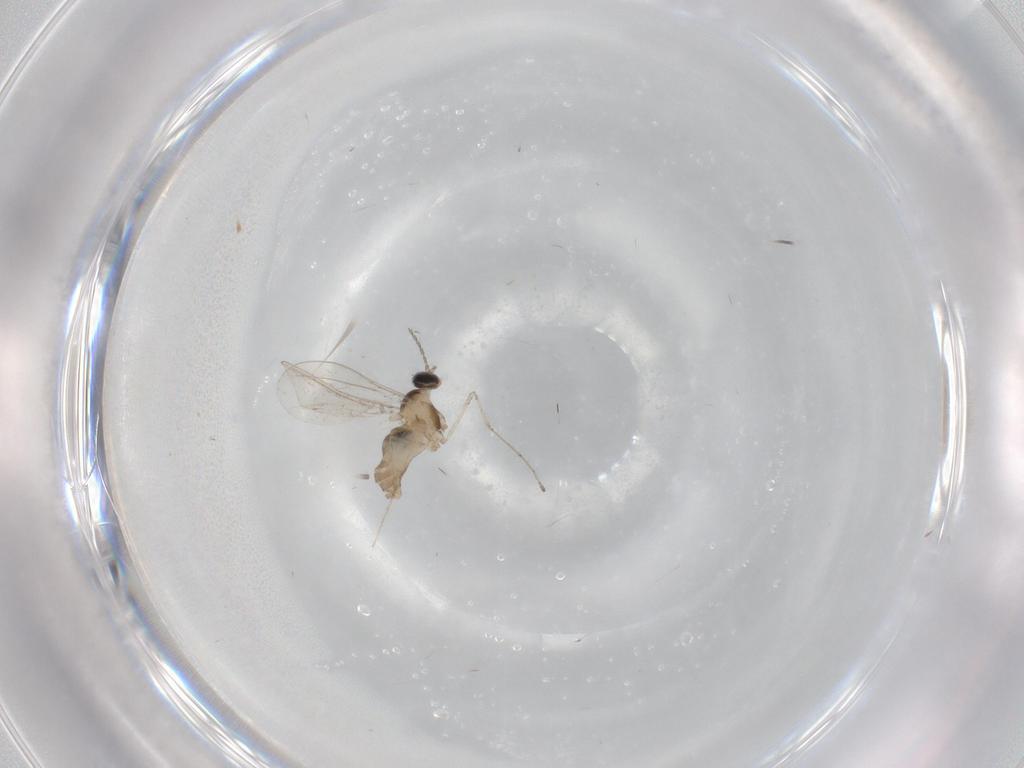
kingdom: Animalia
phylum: Arthropoda
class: Insecta
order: Diptera
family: Cecidomyiidae
